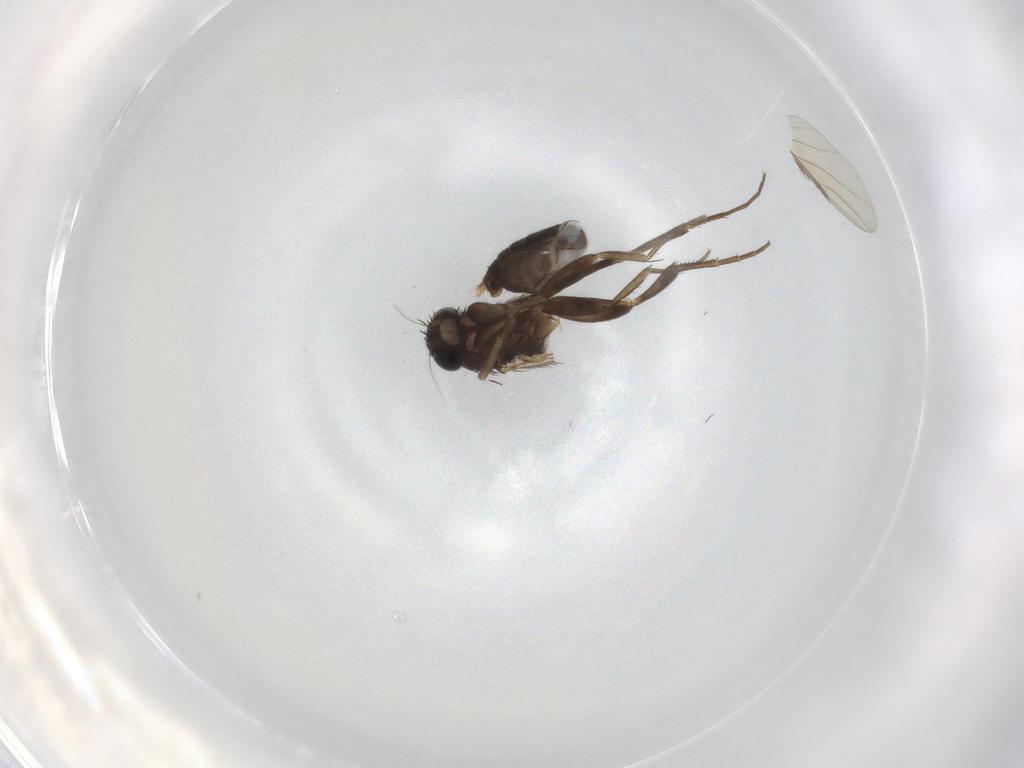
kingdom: Animalia
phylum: Arthropoda
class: Insecta
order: Diptera
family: Phoridae
